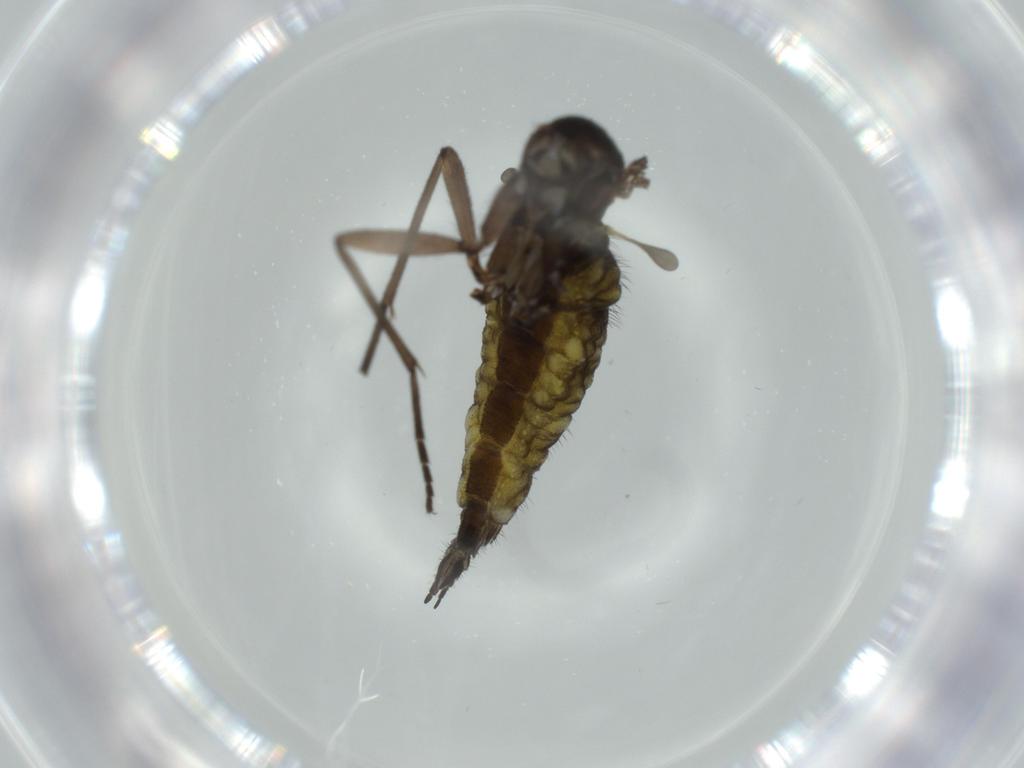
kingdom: Animalia
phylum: Arthropoda
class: Insecta
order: Diptera
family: Sciaridae
